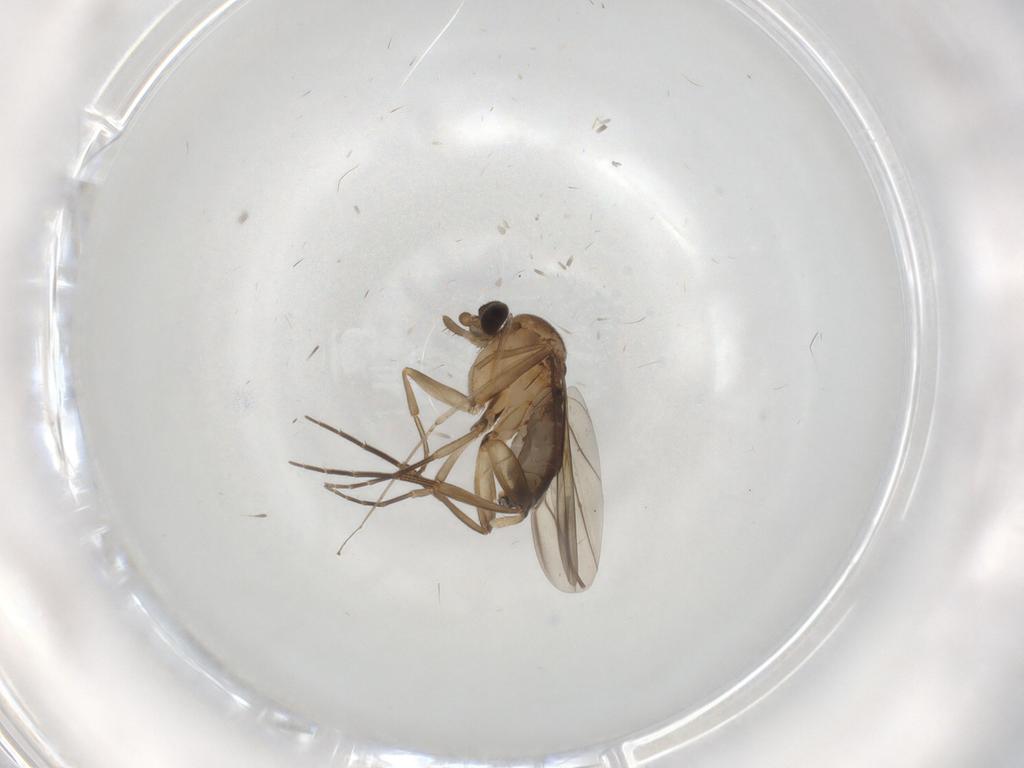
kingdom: Animalia
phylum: Arthropoda
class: Insecta
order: Diptera
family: Phoridae
